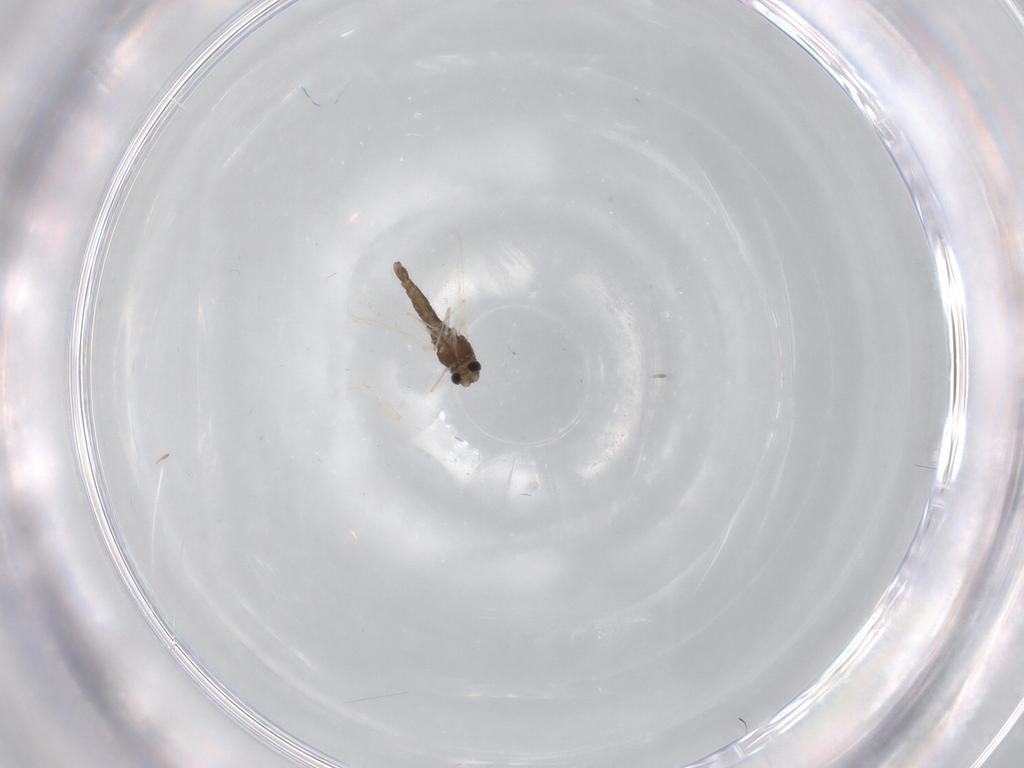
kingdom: Animalia
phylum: Arthropoda
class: Insecta
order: Diptera
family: Chironomidae
